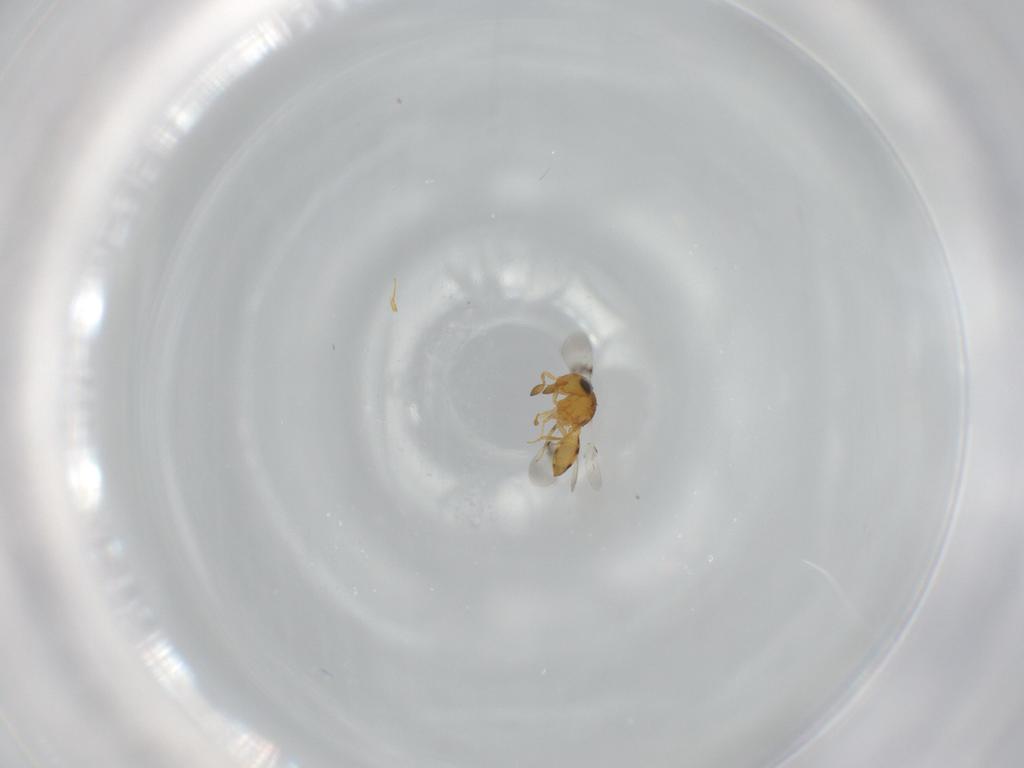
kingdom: Animalia
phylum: Arthropoda
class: Insecta
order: Hymenoptera
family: Scelionidae
